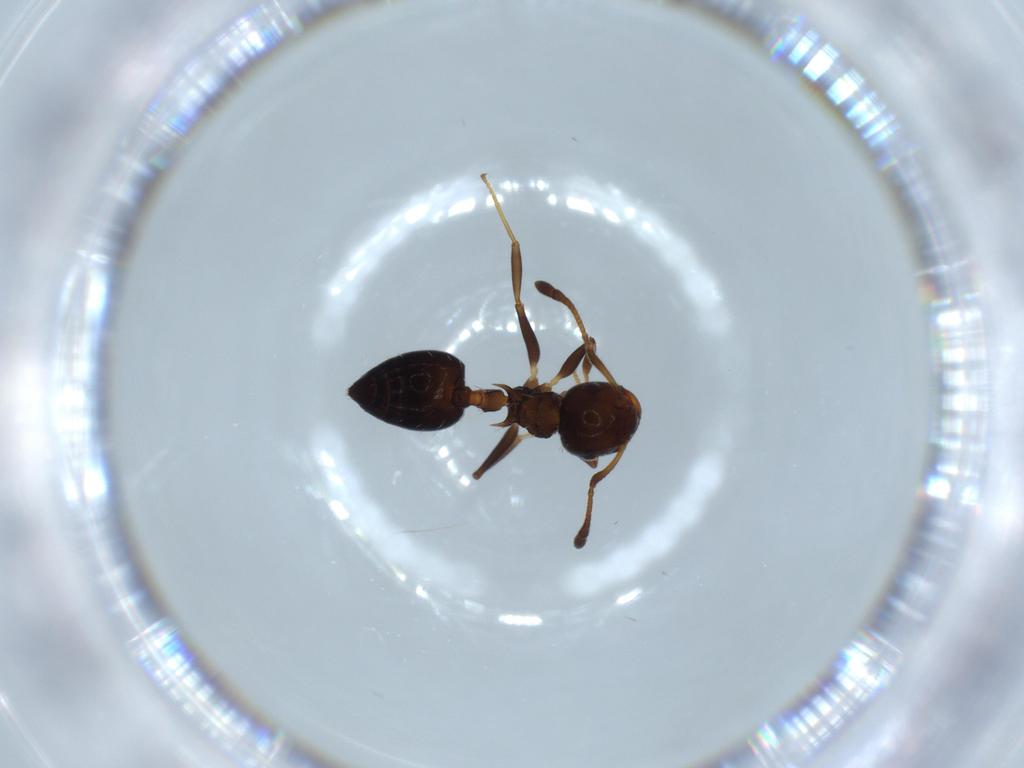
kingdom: Animalia
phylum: Arthropoda
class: Insecta
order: Hymenoptera
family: Formicidae
